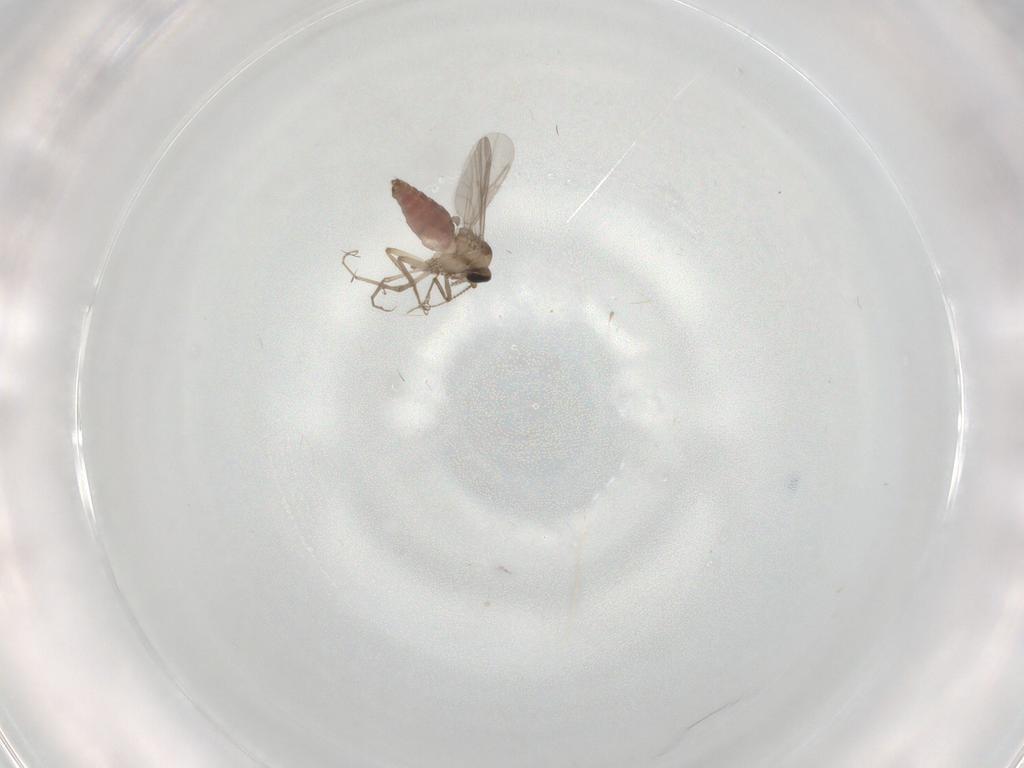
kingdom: Animalia
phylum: Arthropoda
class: Insecta
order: Diptera
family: Ceratopogonidae
